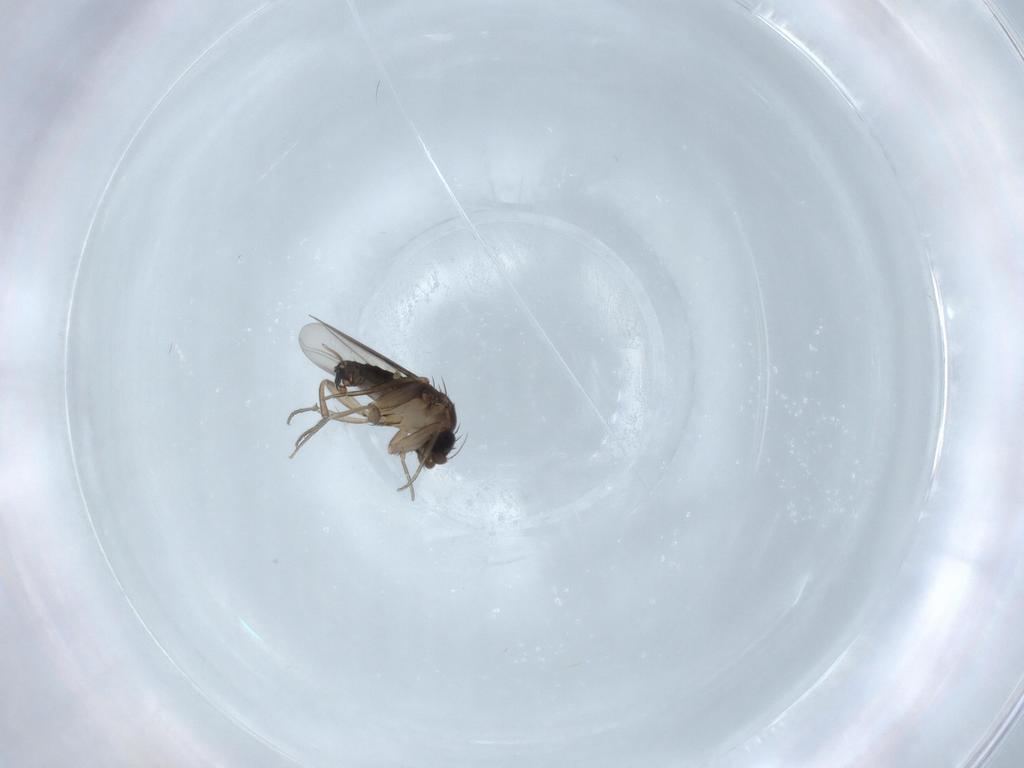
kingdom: Animalia
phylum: Arthropoda
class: Insecta
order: Diptera
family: Phoridae
